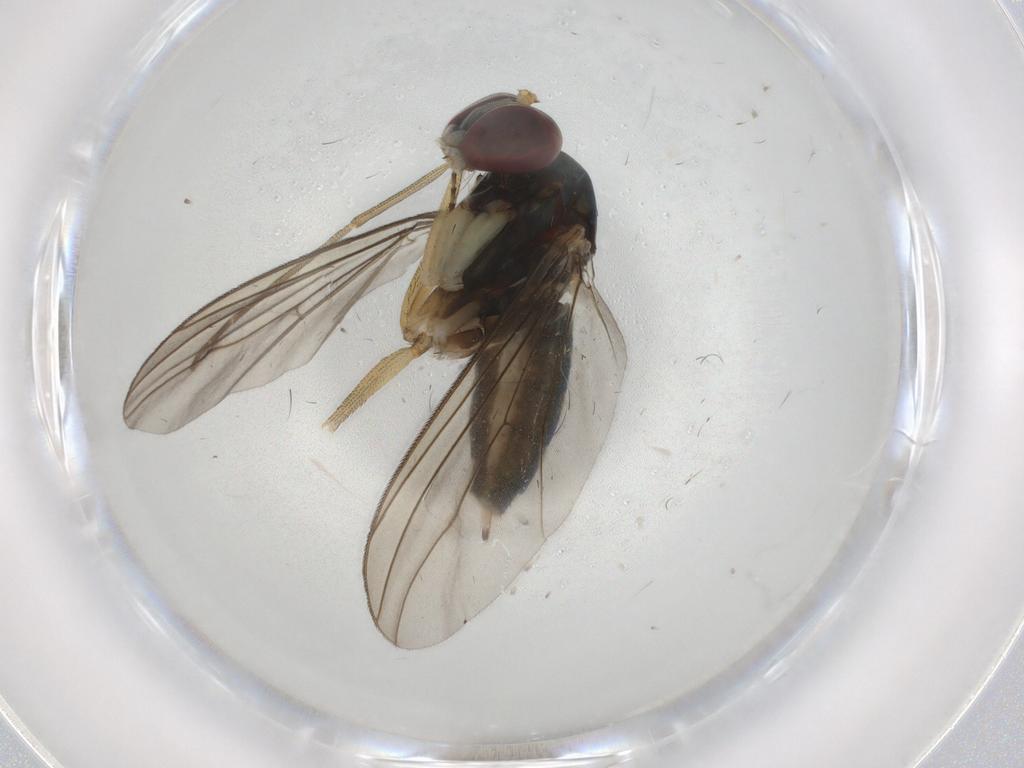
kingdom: Animalia
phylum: Arthropoda
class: Insecta
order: Diptera
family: Dolichopodidae
